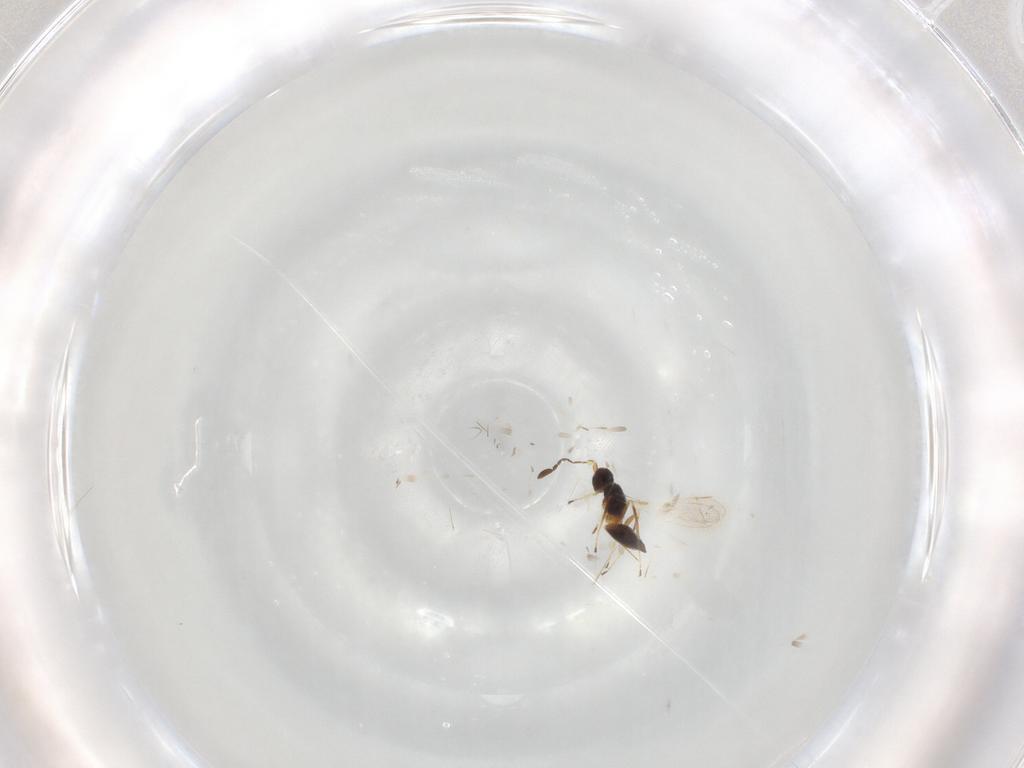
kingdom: Animalia
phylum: Arthropoda
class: Insecta
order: Hymenoptera
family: Mymaridae
